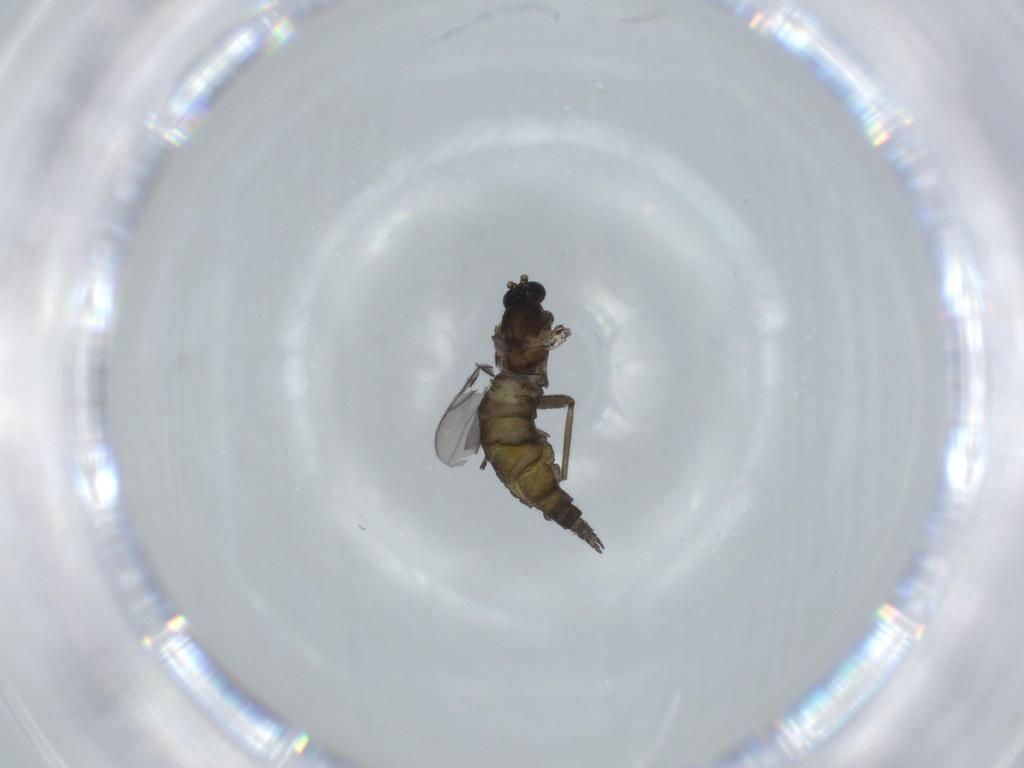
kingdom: Animalia
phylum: Arthropoda
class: Insecta
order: Diptera
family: Sciaridae
